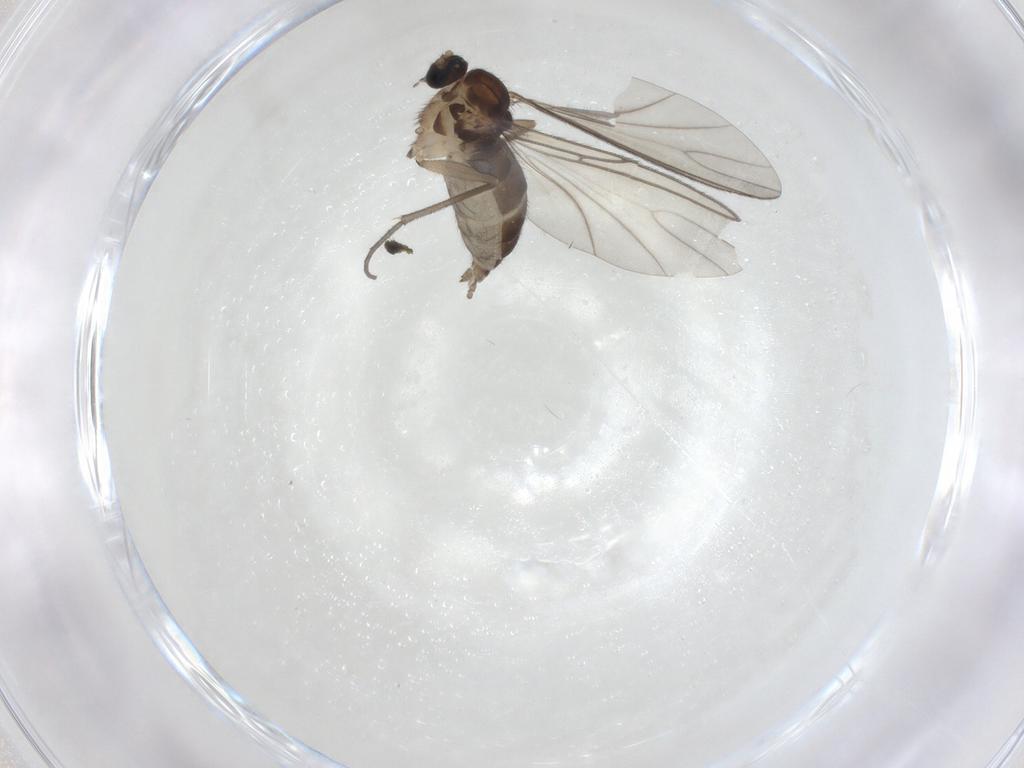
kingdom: Animalia
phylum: Arthropoda
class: Insecta
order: Diptera
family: Sciaridae
